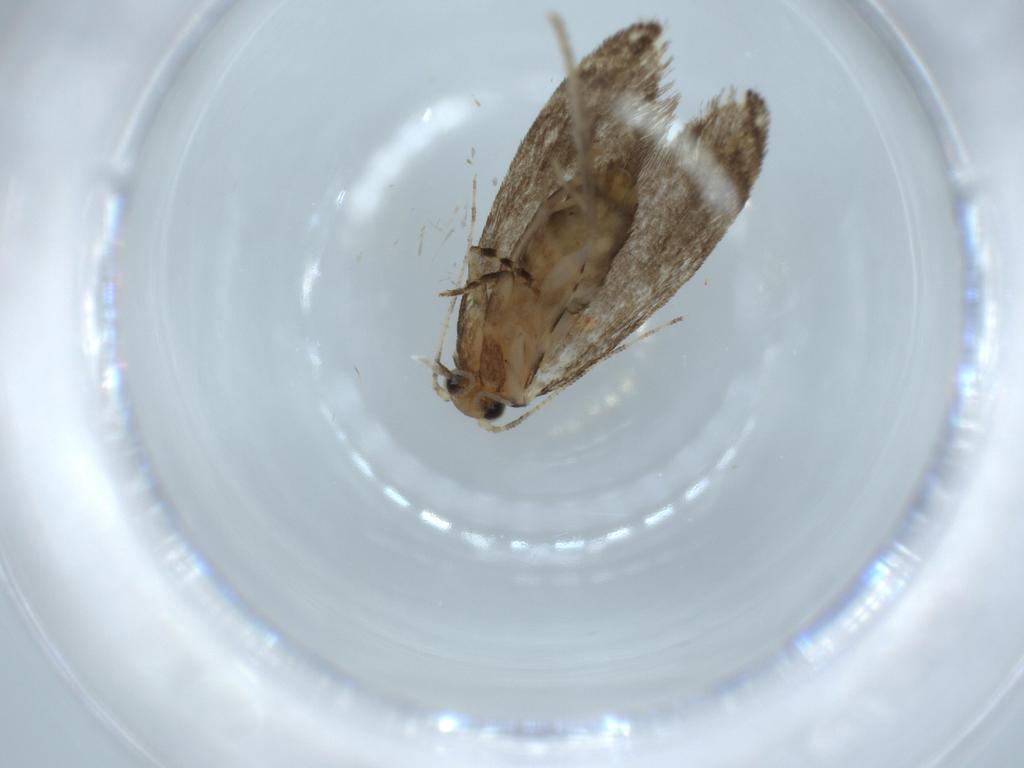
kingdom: Animalia
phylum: Arthropoda
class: Insecta
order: Lepidoptera
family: Tineidae
